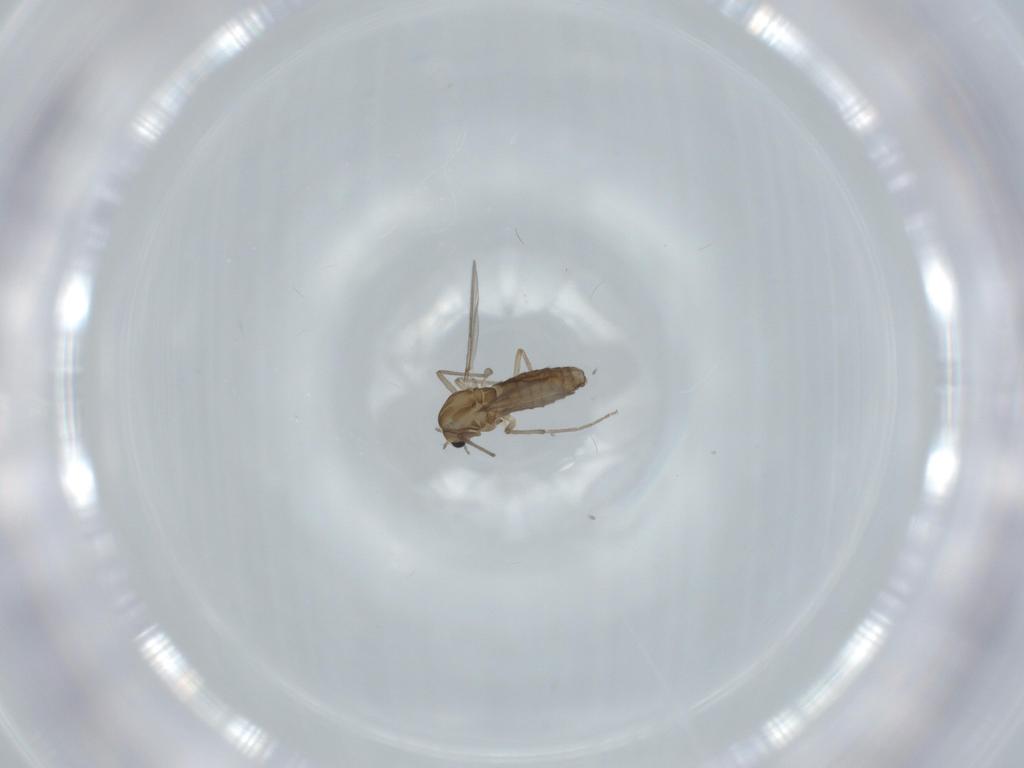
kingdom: Animalia
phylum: Arthropoda
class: Insecta
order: Diptera
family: Chironomidae
